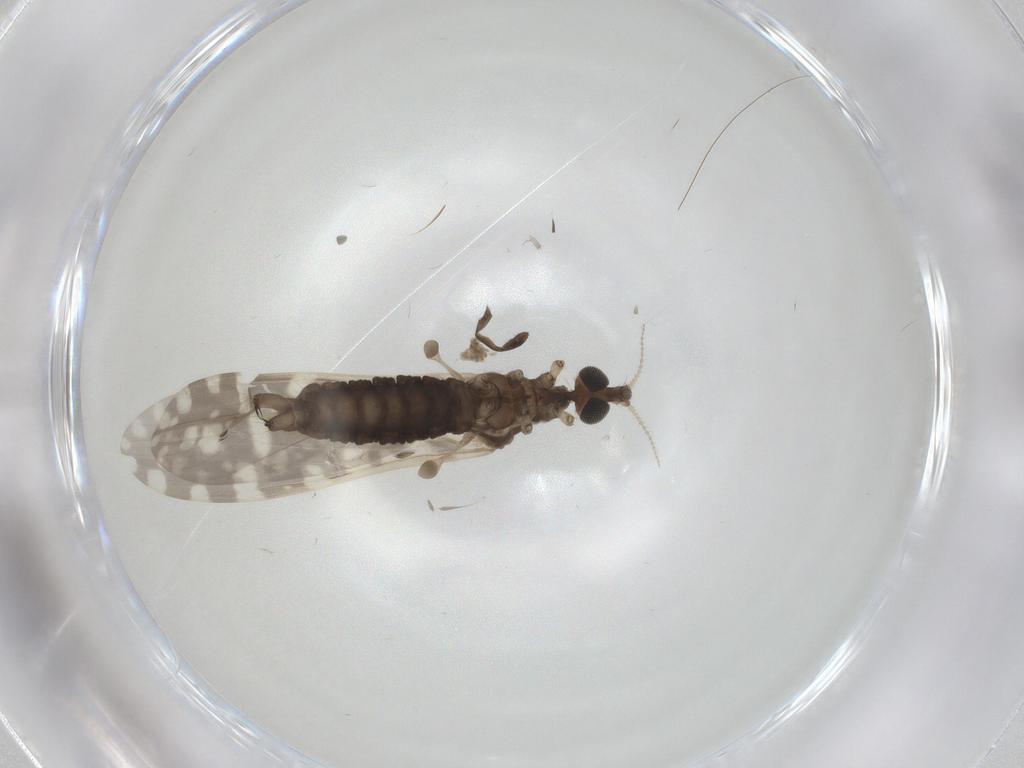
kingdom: Animalia
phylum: Arthropoda
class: Insecta
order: Diptera
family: Limoniidae
